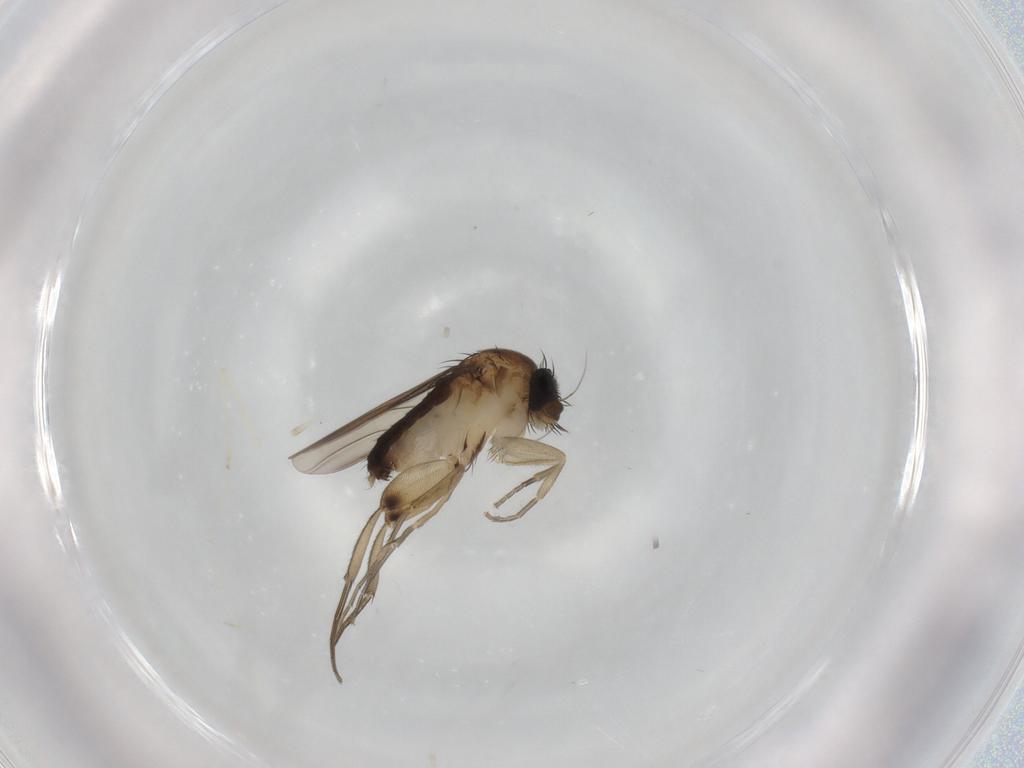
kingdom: Animalia
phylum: Arthropoda
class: Insecta
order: Diptera
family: Phoridae
